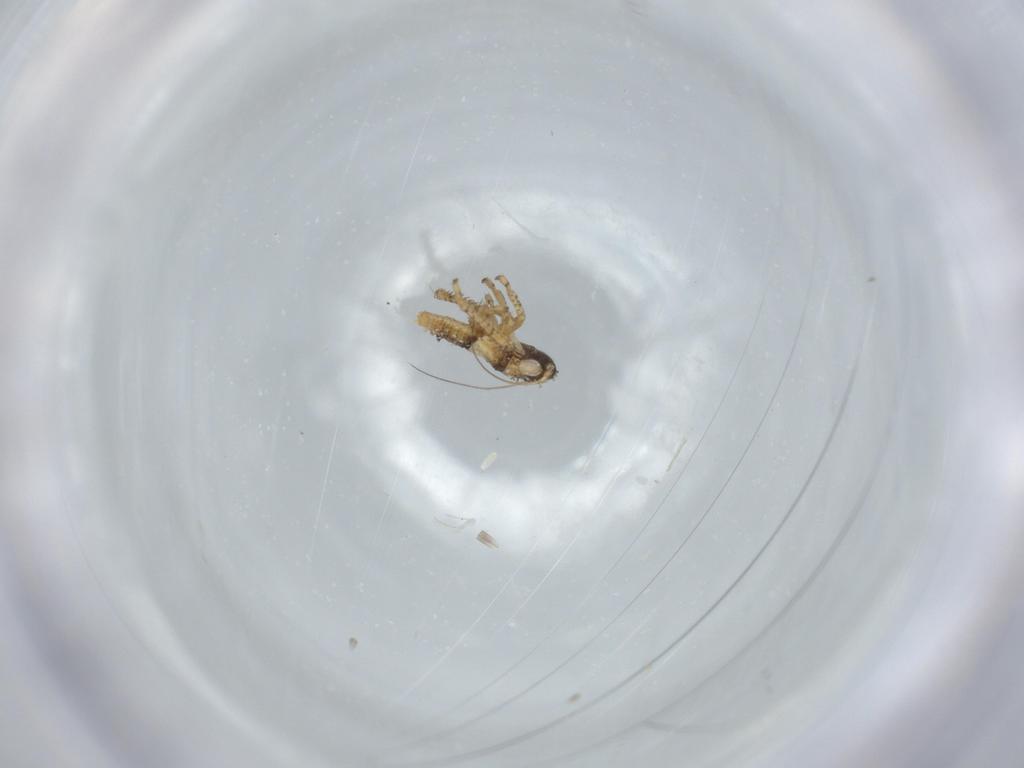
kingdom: Animalia
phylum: Arthropoda
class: Insecta
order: Hemiptera
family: Cicadellidae
